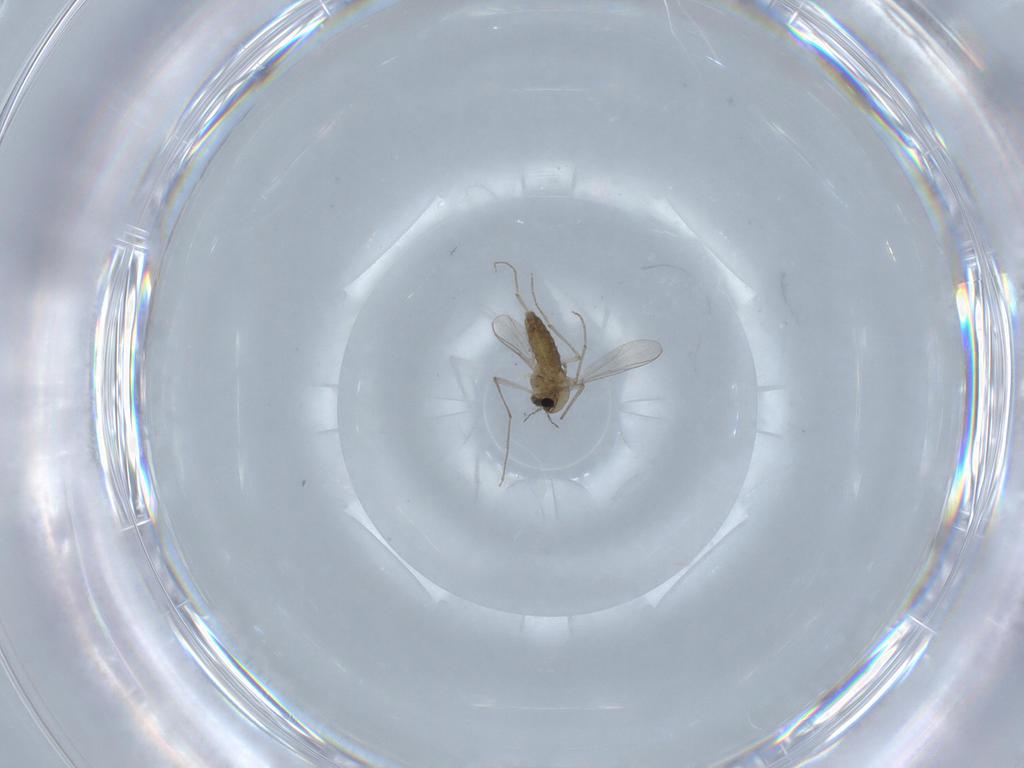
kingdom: Animalia
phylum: Arthropoda
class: Insecta
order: Diptera
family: Chironomidae
